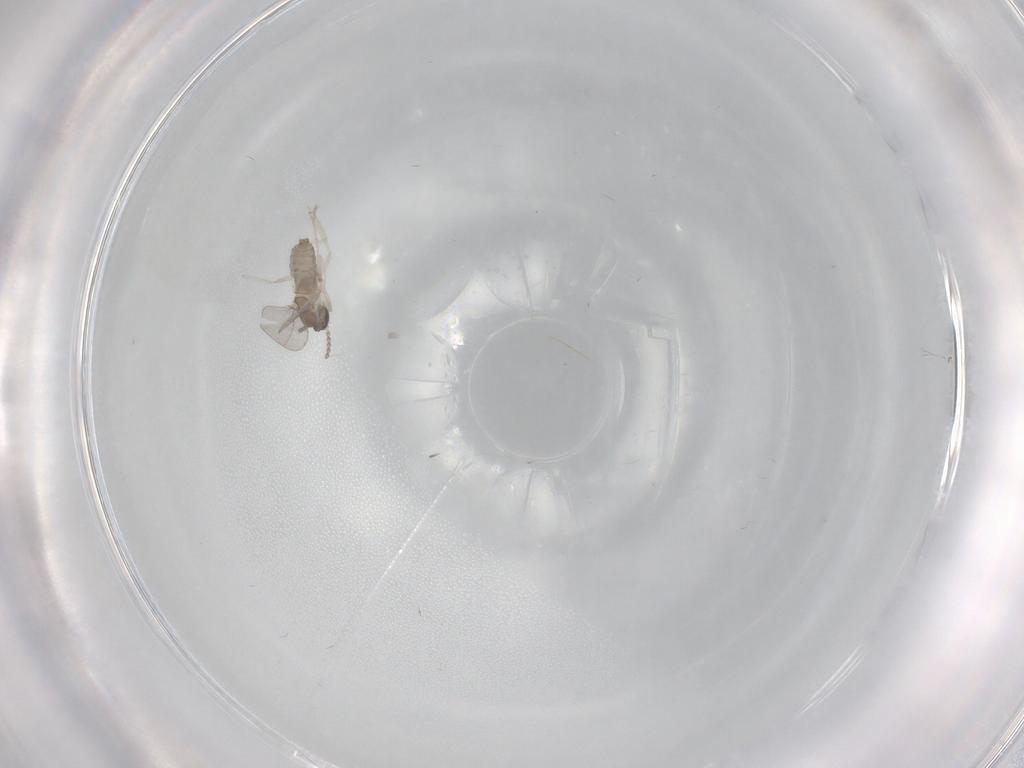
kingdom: Animalia
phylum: Arthropoda
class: Insecta
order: Diptera
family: Cecidomyiidae
